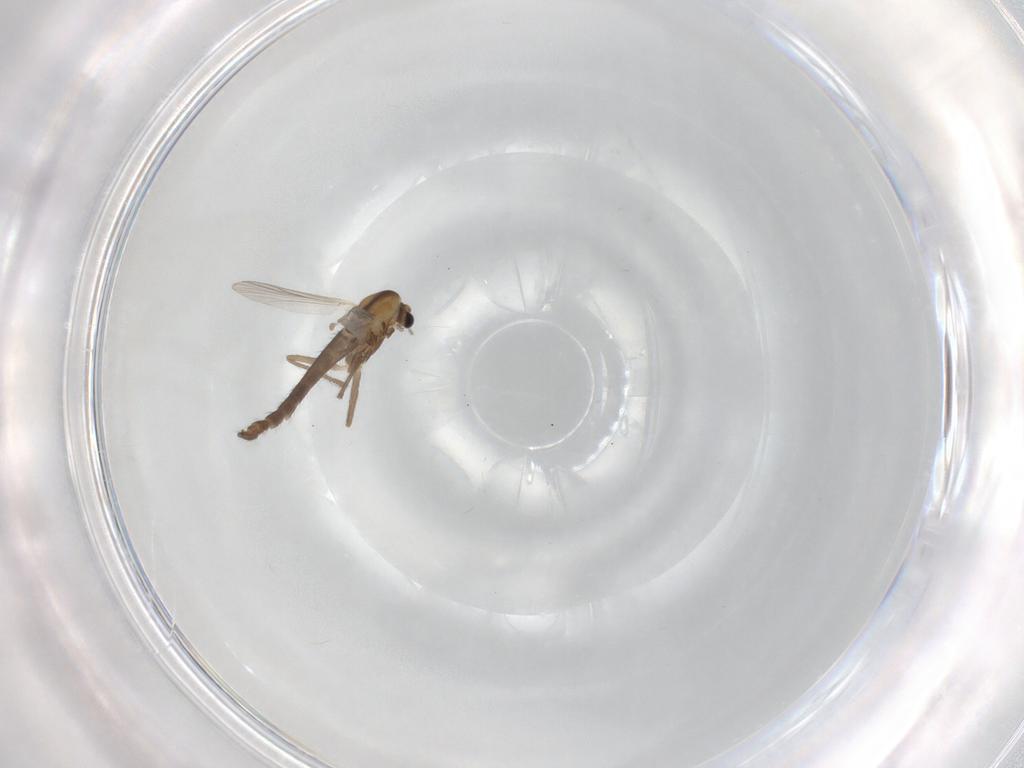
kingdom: Animalia
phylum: Arthropoda
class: Insecta
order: Diptera
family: Chironomidae
